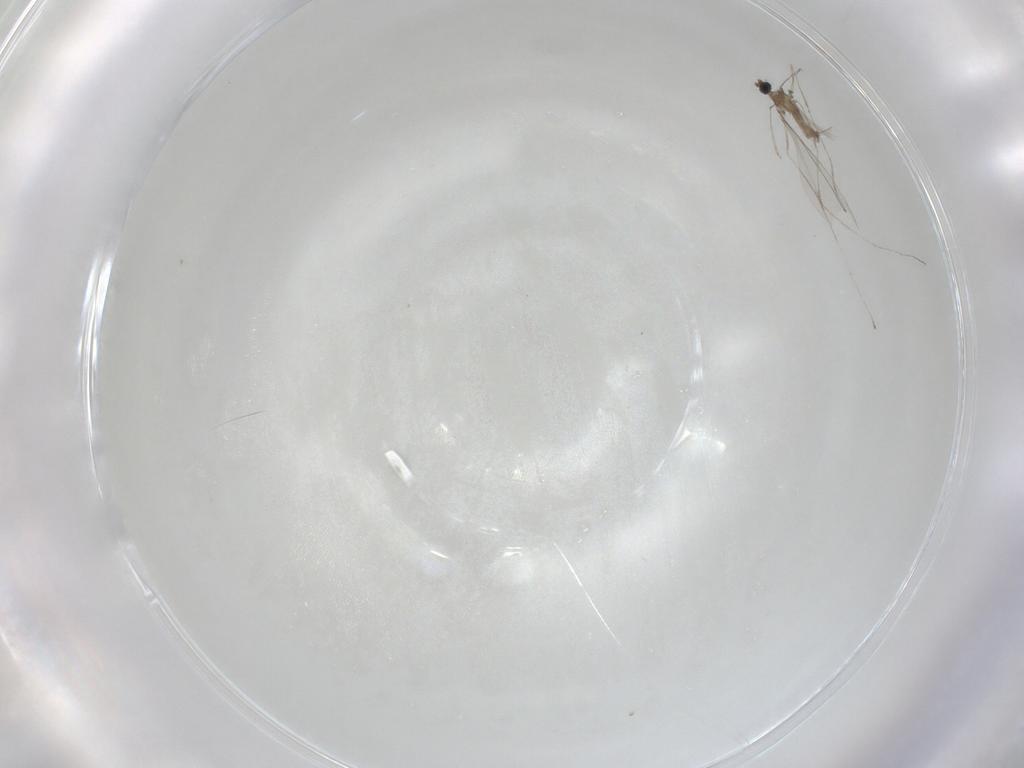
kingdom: Animalia
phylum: Arthropoda
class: Insecta
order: Diptera
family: Cecidomyiidae
